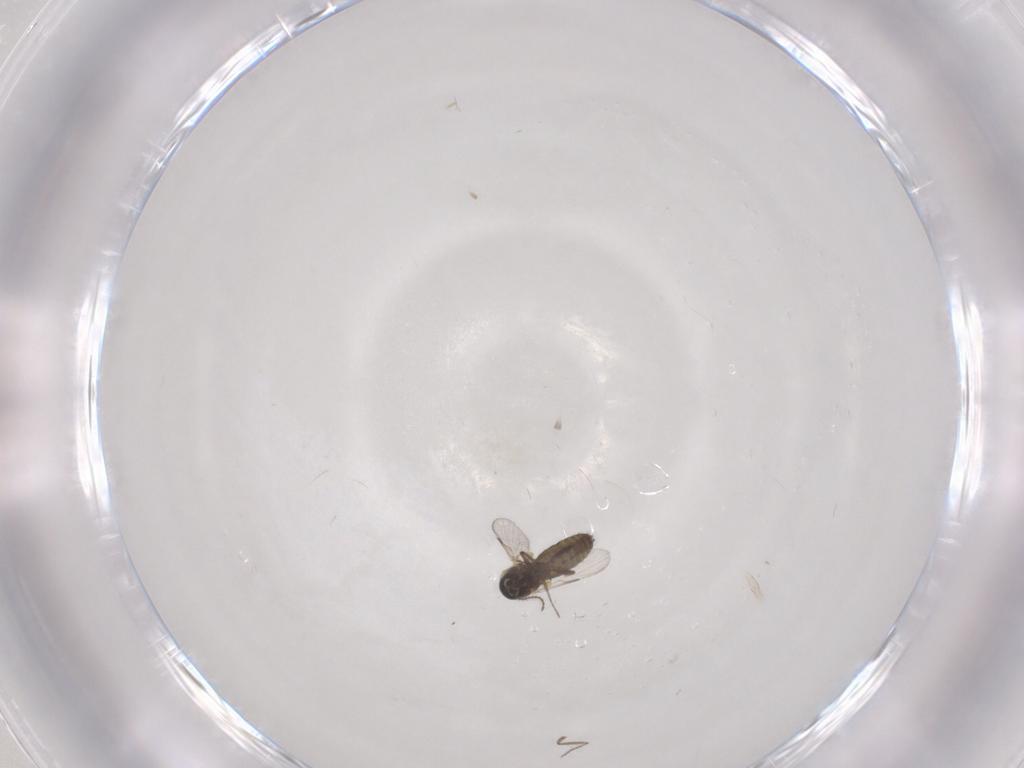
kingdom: Animalia
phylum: Arthropoda
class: Insecta
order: Diptera
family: Ceratopogonidae
